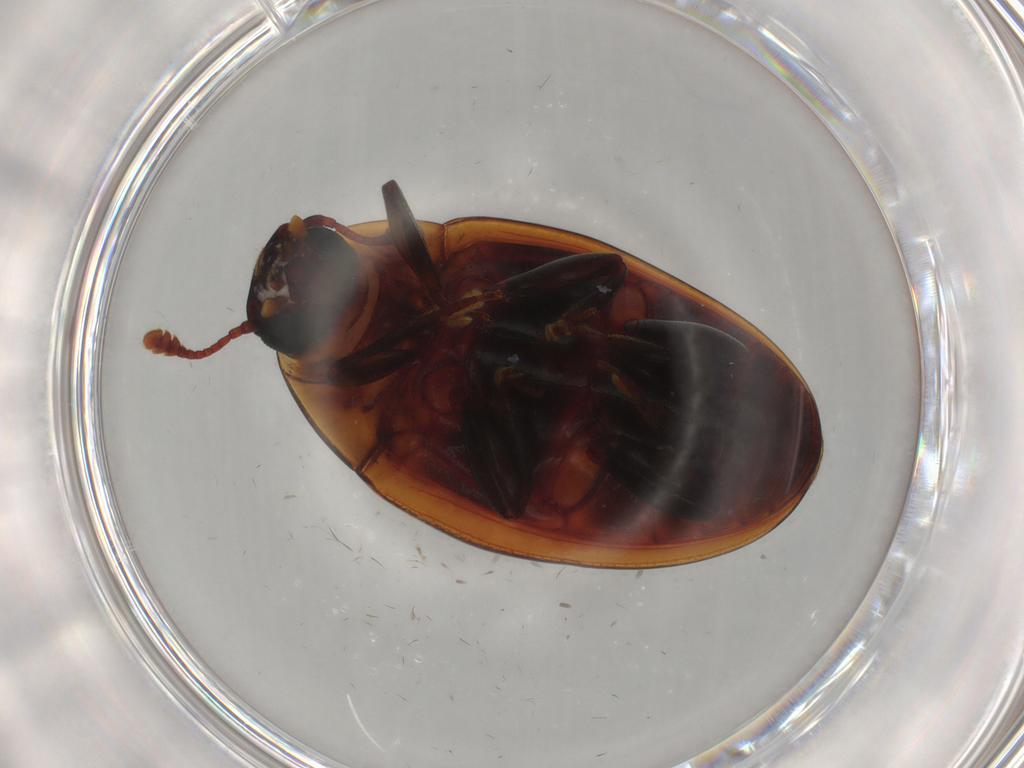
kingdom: Animalia
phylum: Arthropoda
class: Insecta
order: Coleoptera
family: Zopheridae
